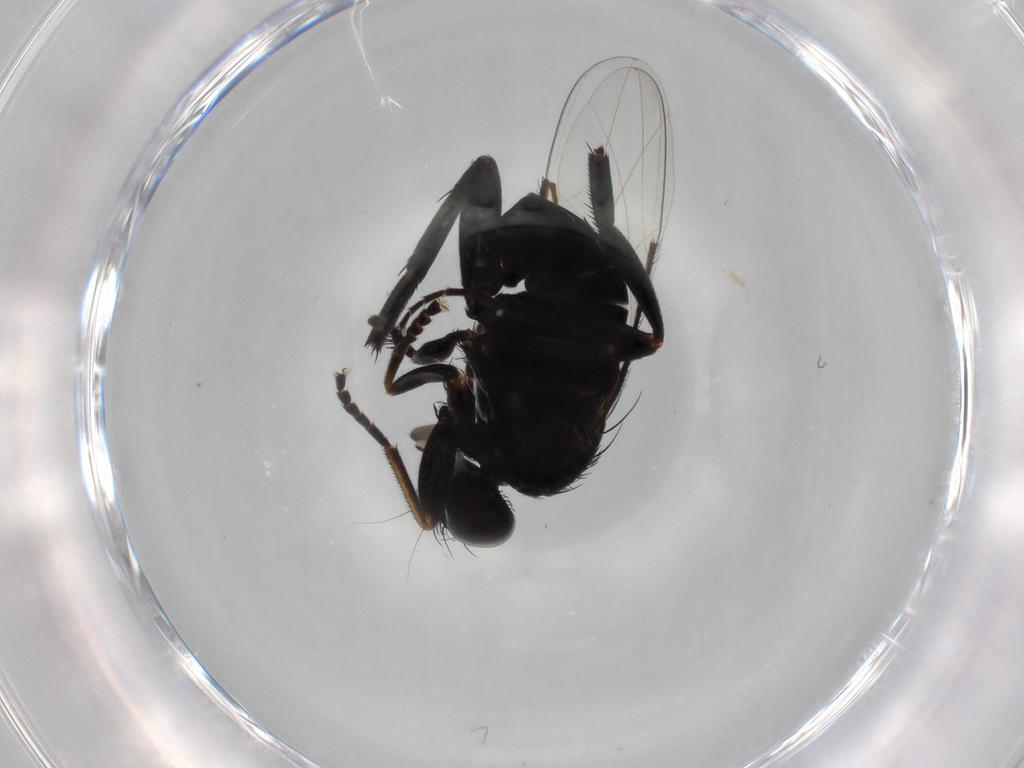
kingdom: Animalia
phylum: Arthropoda
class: Insecta
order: Diptera
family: Phoridae
